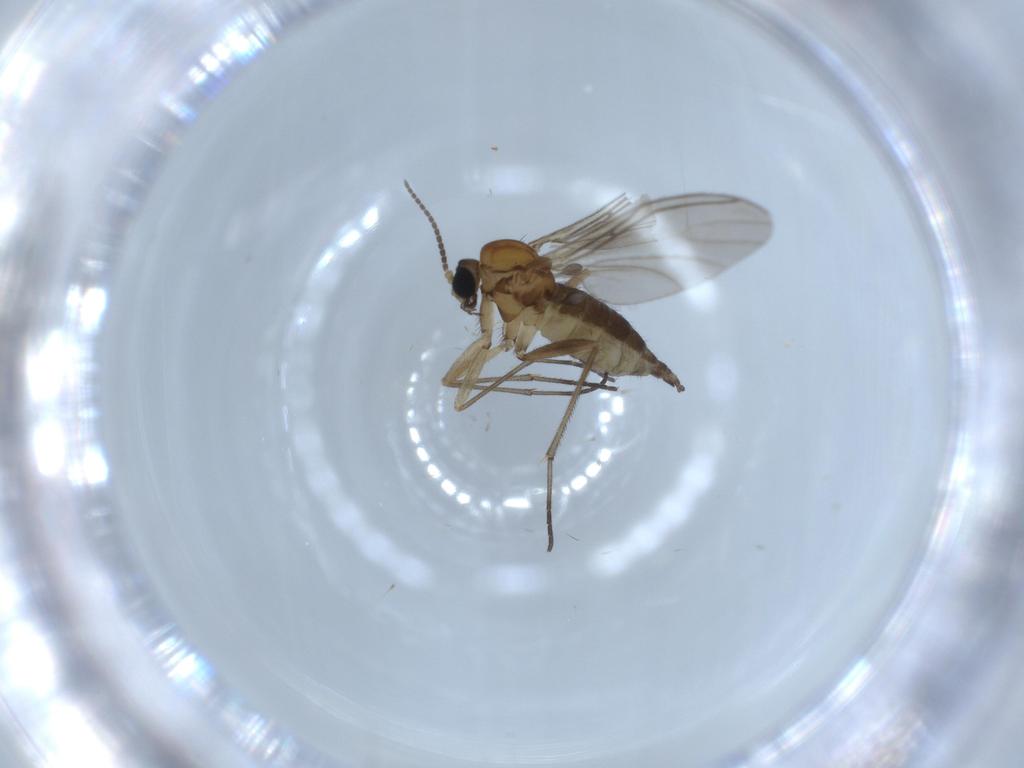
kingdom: Animalia
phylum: Arthropoda
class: Insecta
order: Diptera
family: Sciaridae
